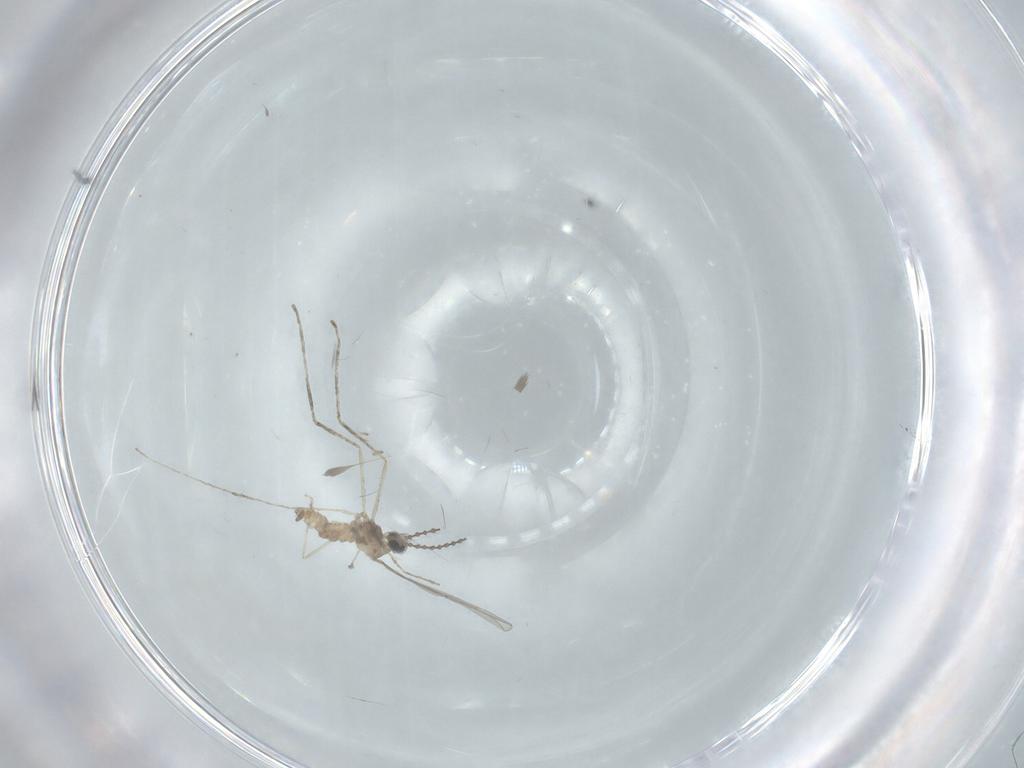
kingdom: Animalia
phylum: Arthropoda
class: Insecta
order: Diptera
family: Cecidomyiidae
